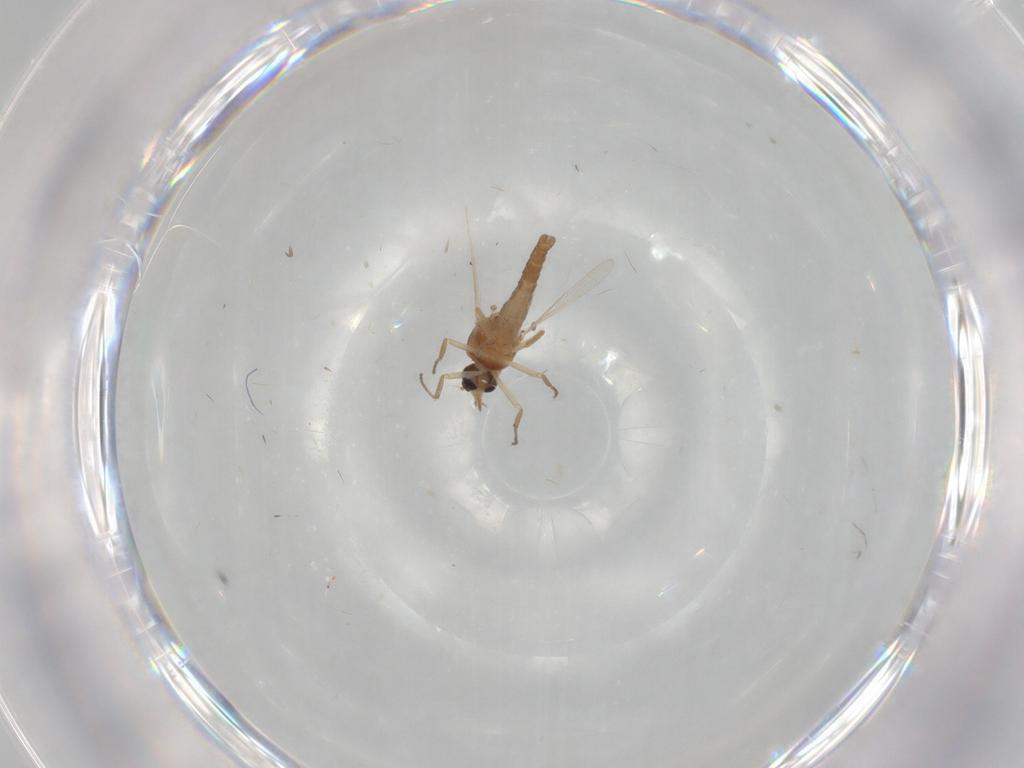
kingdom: Animalia
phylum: Arthropoda
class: Insecta
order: Diptera
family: Ceratopogonidae
